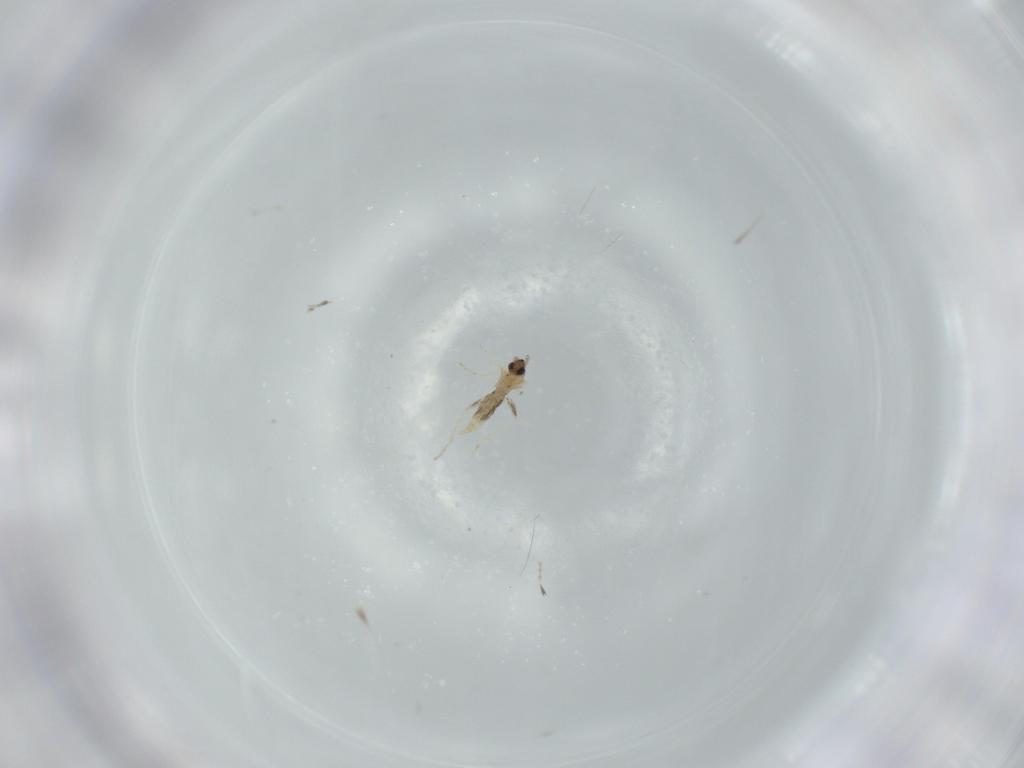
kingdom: Animalia
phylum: Arthropoda
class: Insecta
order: Diptera
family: Cecidomyiidae
